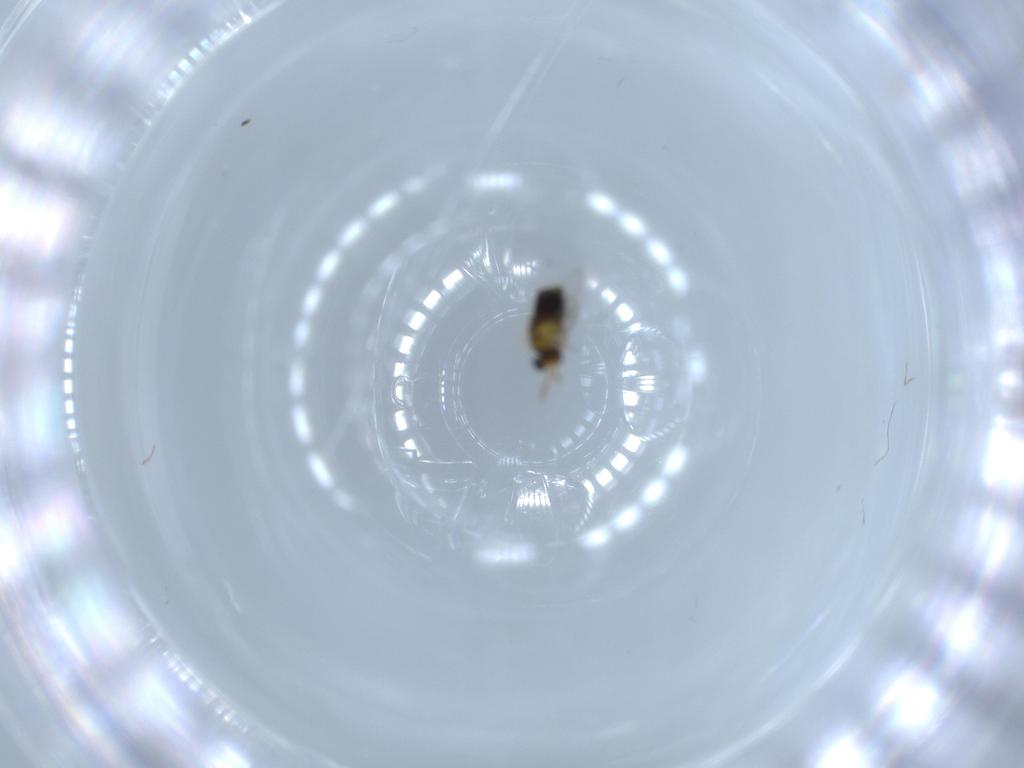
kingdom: Animalia
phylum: Arthropoda
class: Insecta
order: Hymenoptera
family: Aphelinidae
